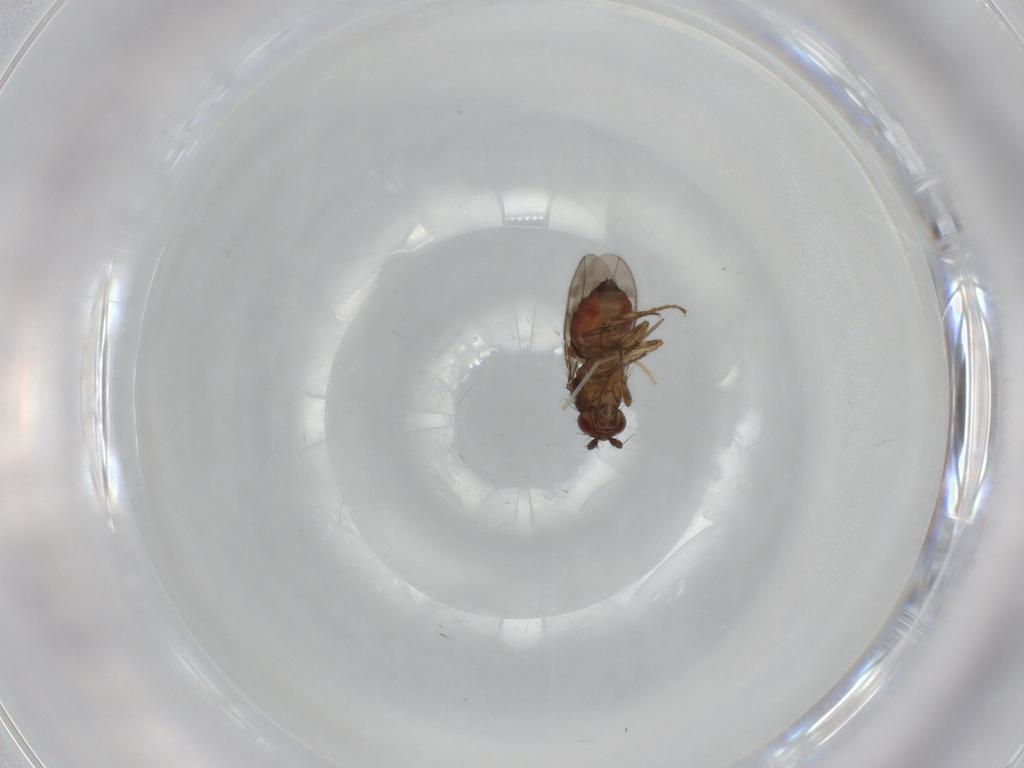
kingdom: Animalia
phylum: Arthropoda
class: Insecta
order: Diptera
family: Sphaeroceridae
